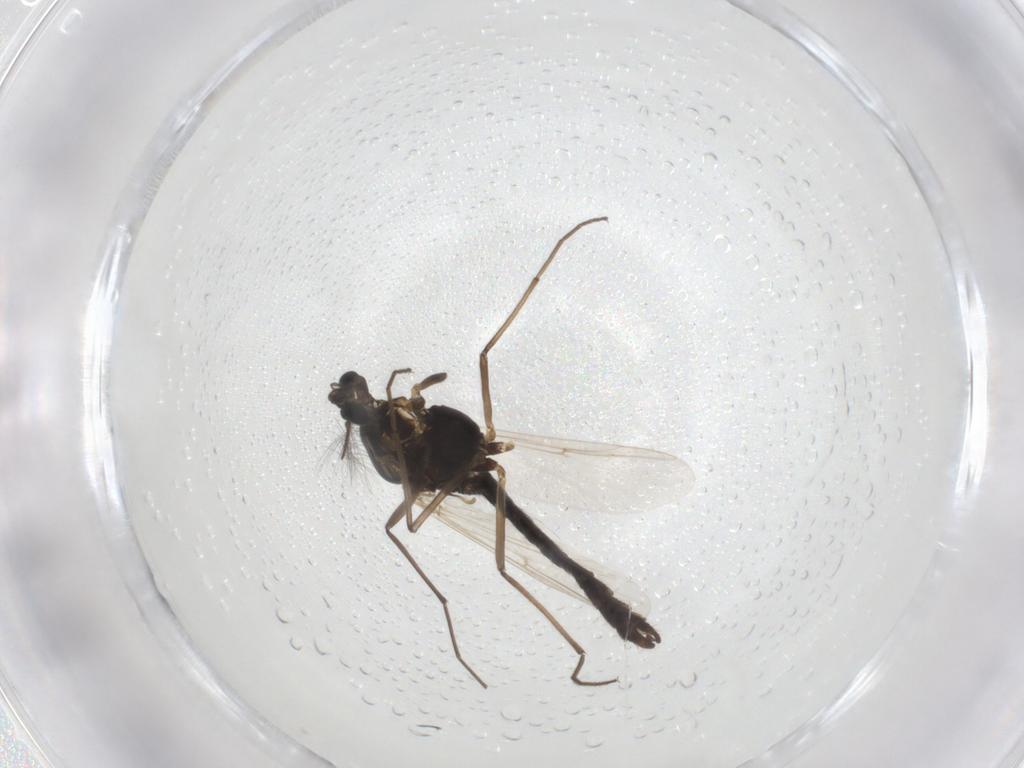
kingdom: Animalia
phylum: Arthropoda
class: Insecta
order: Diptera
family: Chironomidae
